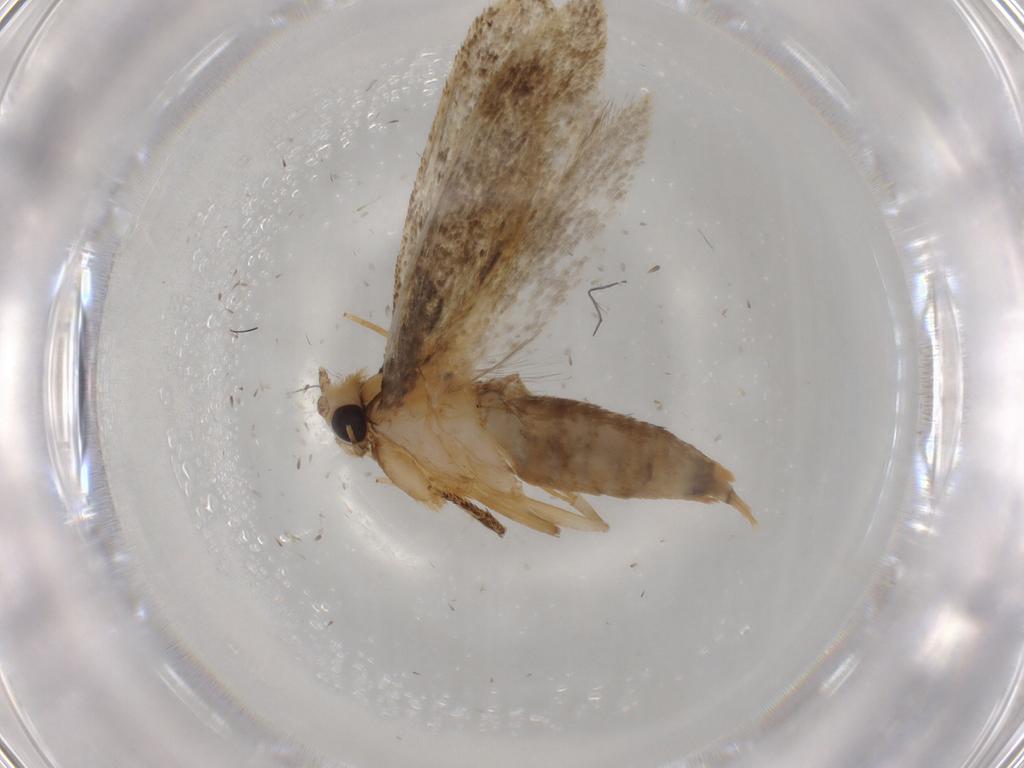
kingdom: Animalia
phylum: Arthropoda
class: Insecta
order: Lepidoptera
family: Tineidae
